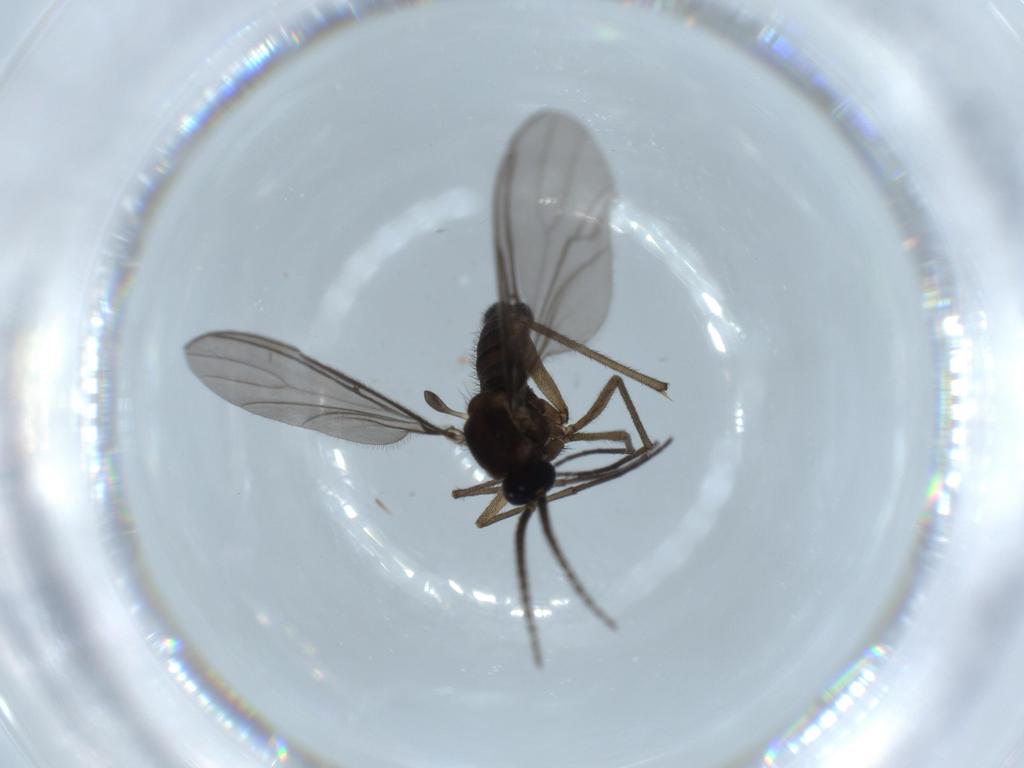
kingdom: Animalia
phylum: Arthropoda
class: Insecta
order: Diptera
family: Sciaridae
